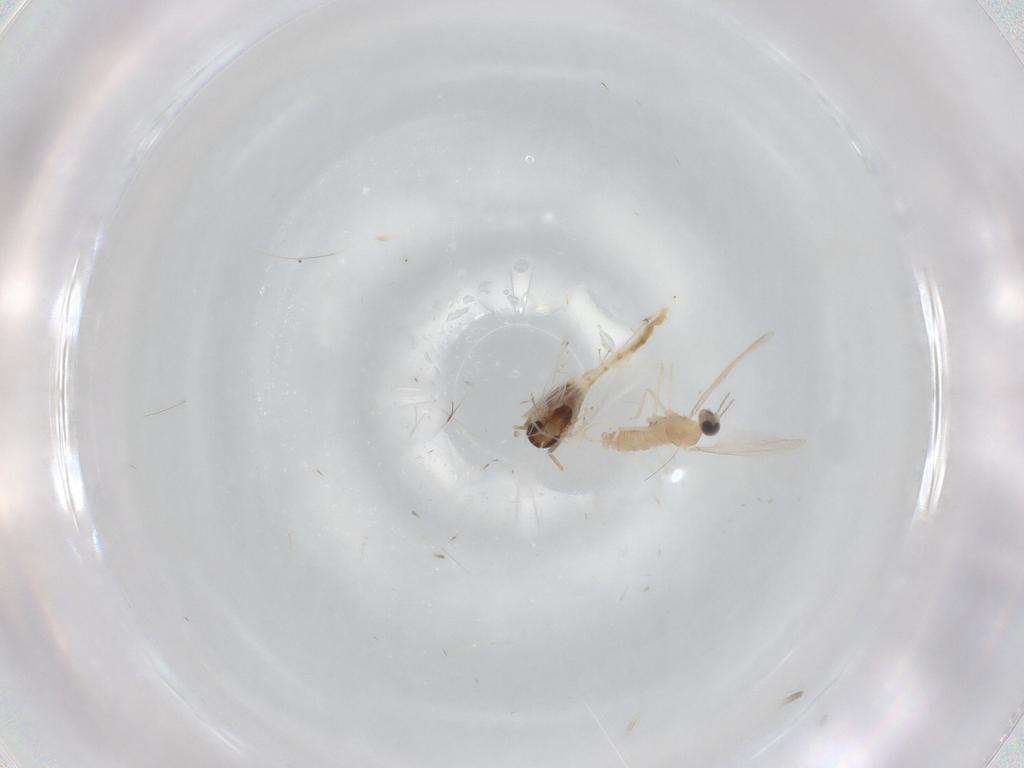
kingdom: Animalia
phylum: Arthropoda
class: Insecta
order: Diptera
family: Chironomidae
